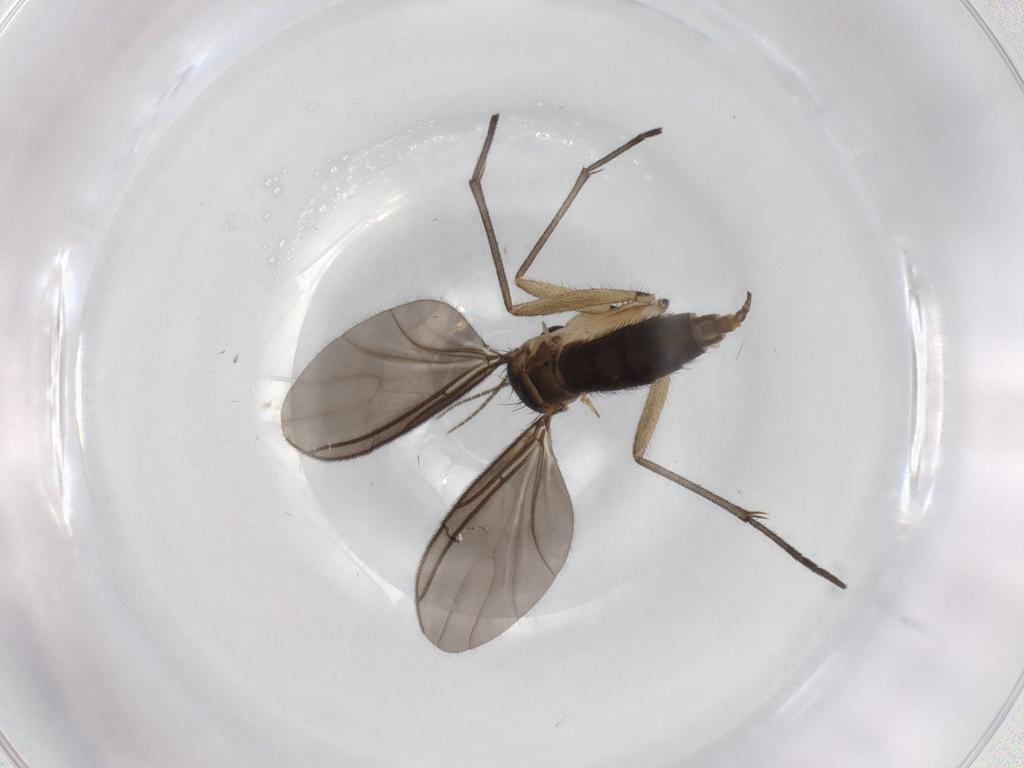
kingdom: Animalia
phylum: Arthropoda
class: Insecta
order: Diptera
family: Sciaridae
